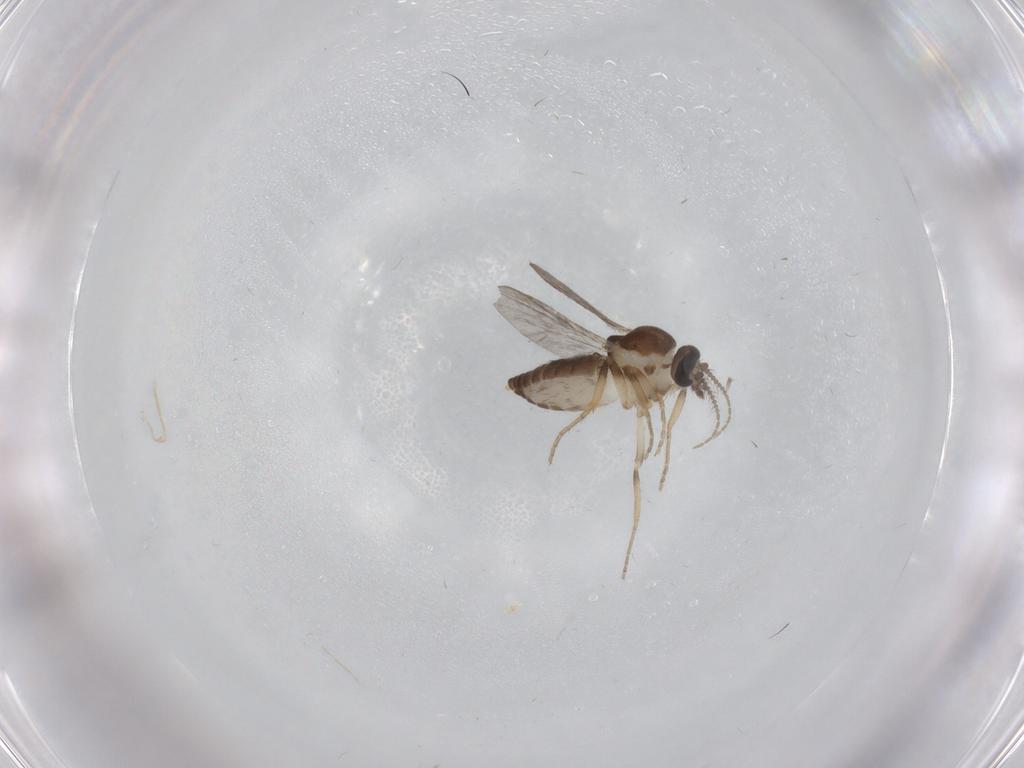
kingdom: Animalia
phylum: Arthropoda
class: Insecta
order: Diptera
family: Ceratopogonidae
